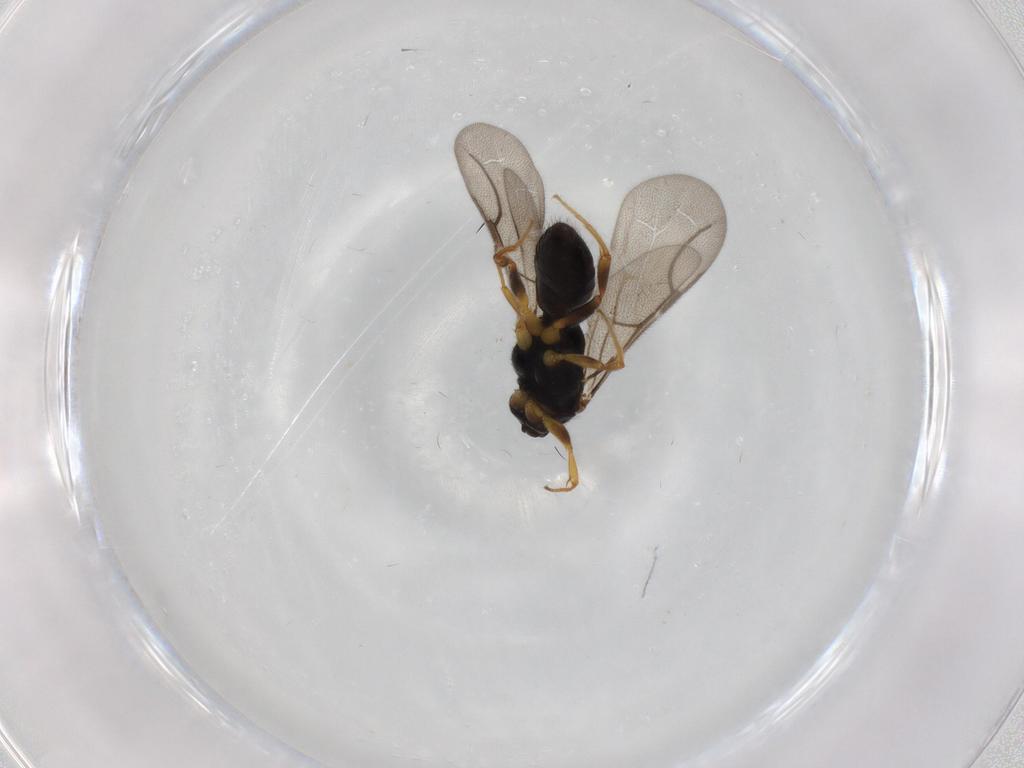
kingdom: Animalia
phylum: Arthropoda
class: Insecta
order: Hymenoptera
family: Bethylidae
